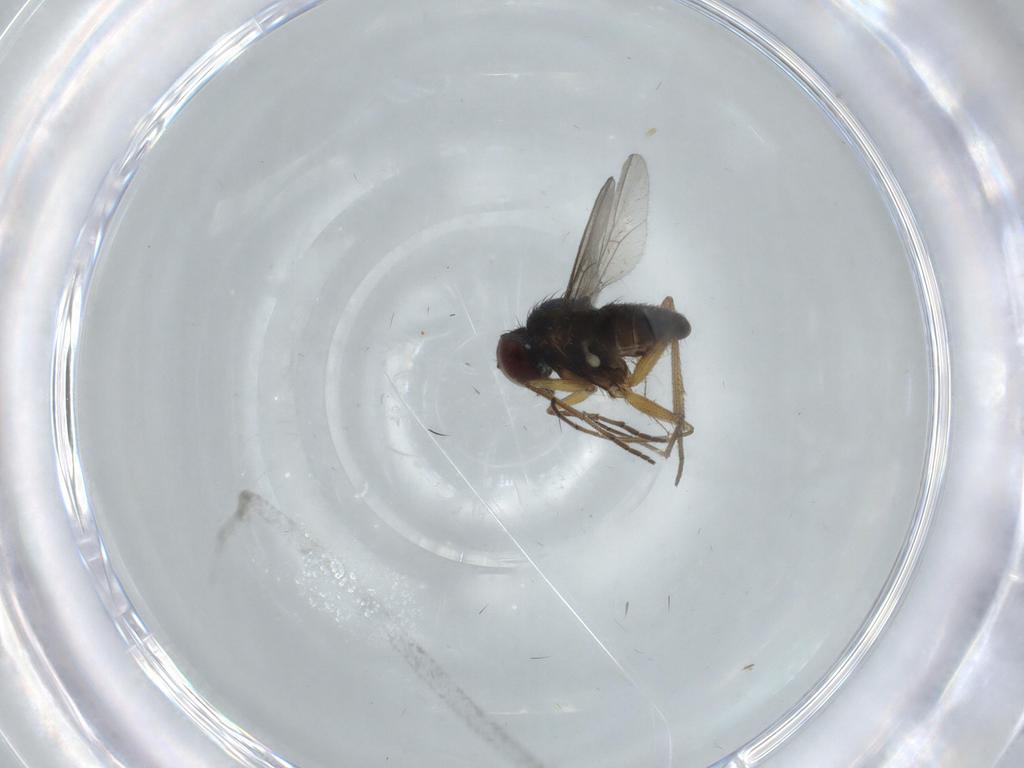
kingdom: Animalia
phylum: Arthropoda
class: Insecta
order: Diptera
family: Dolichopodidae
